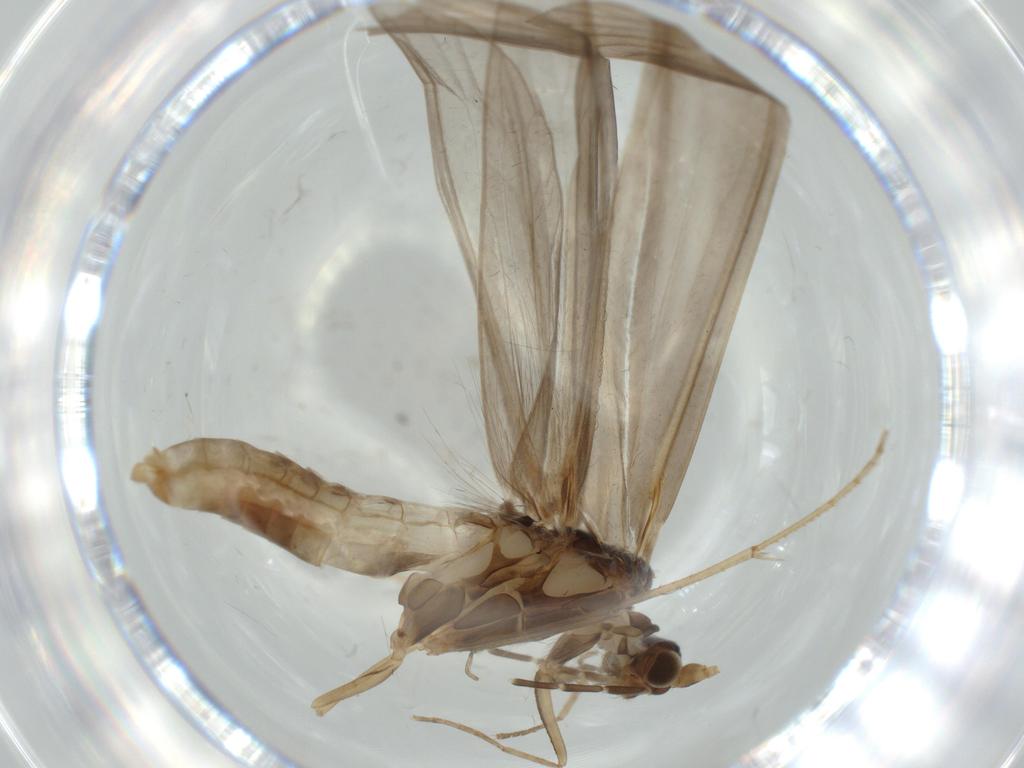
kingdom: Animalia
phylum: Arthropoda
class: Insecta
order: Trichoptera
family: Leptoceridae
